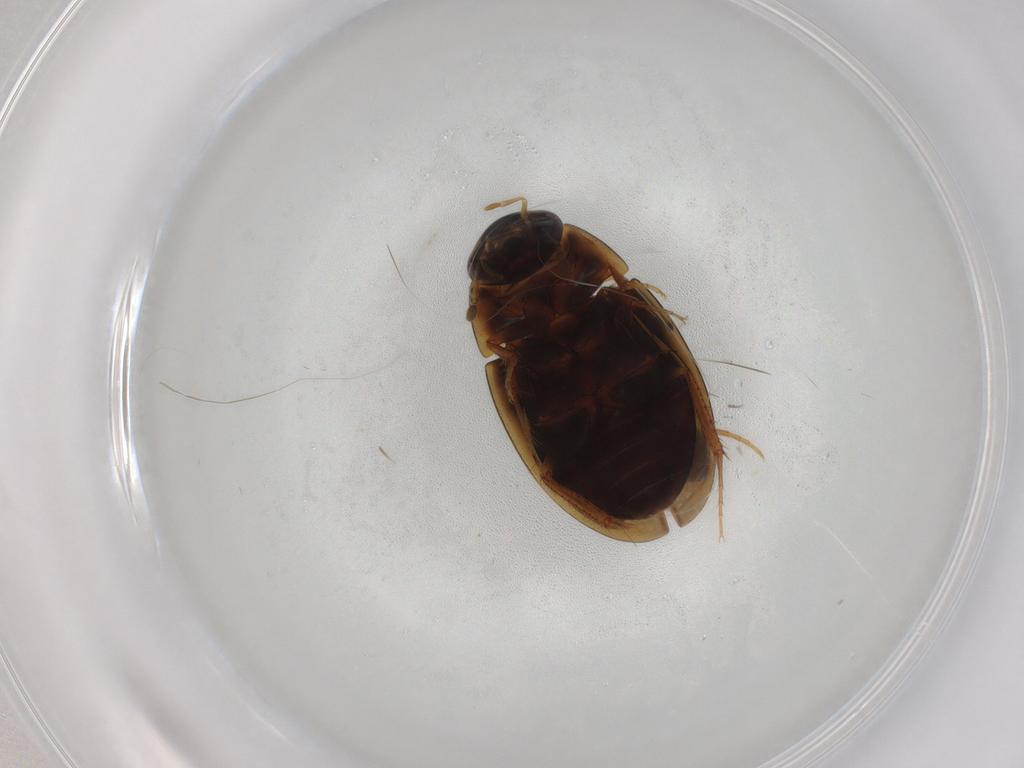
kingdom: Animalia
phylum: Arthropoda
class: Insecta
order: Coleoptera
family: Hydrophilidae
